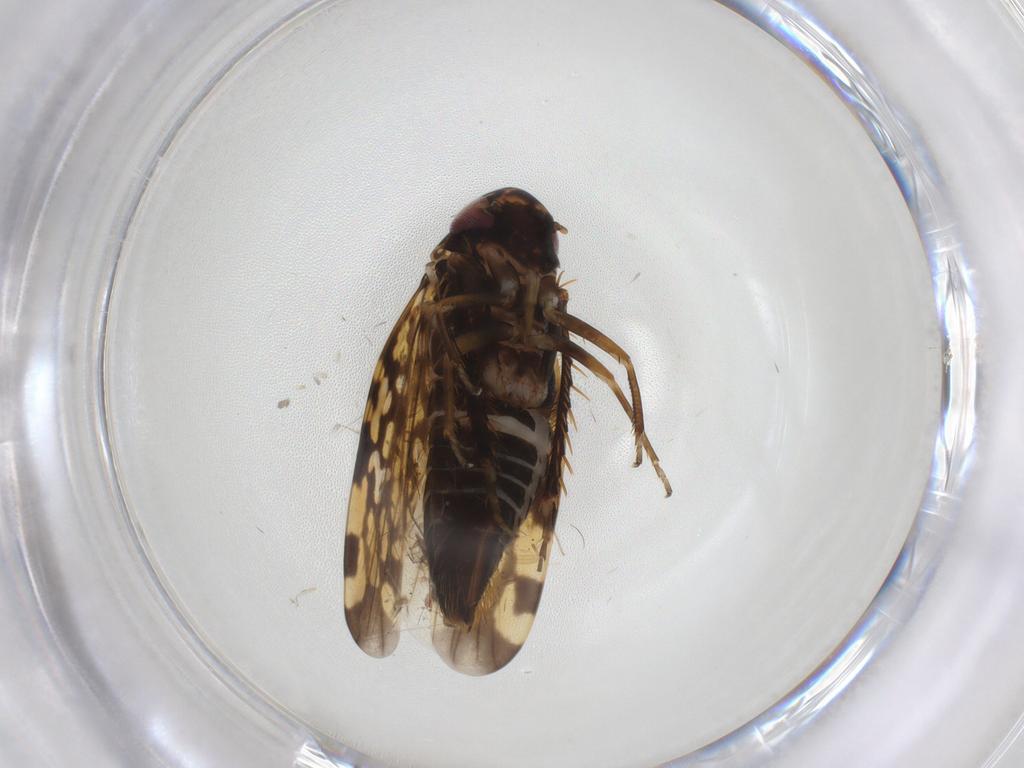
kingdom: Animalia
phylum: Arthropoda
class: Insecta
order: Hemiptera
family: Cicadellidae
